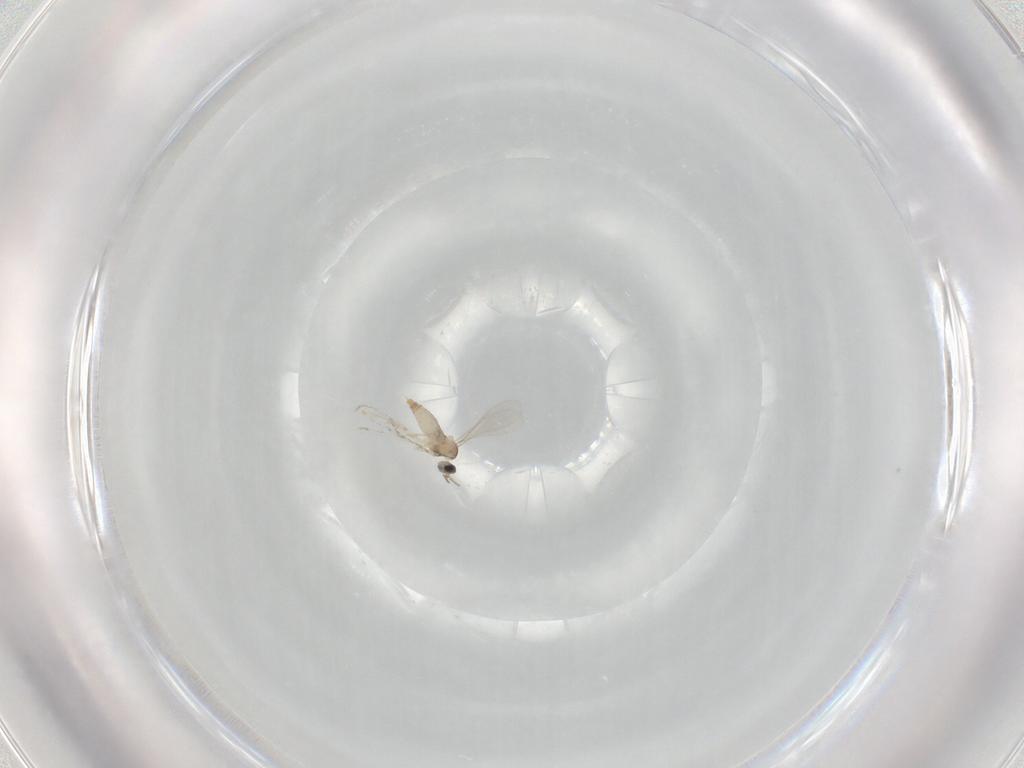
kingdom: Animalia
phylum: Arthropoda
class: Insecta
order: Diptera
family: Cecidomyiidae
